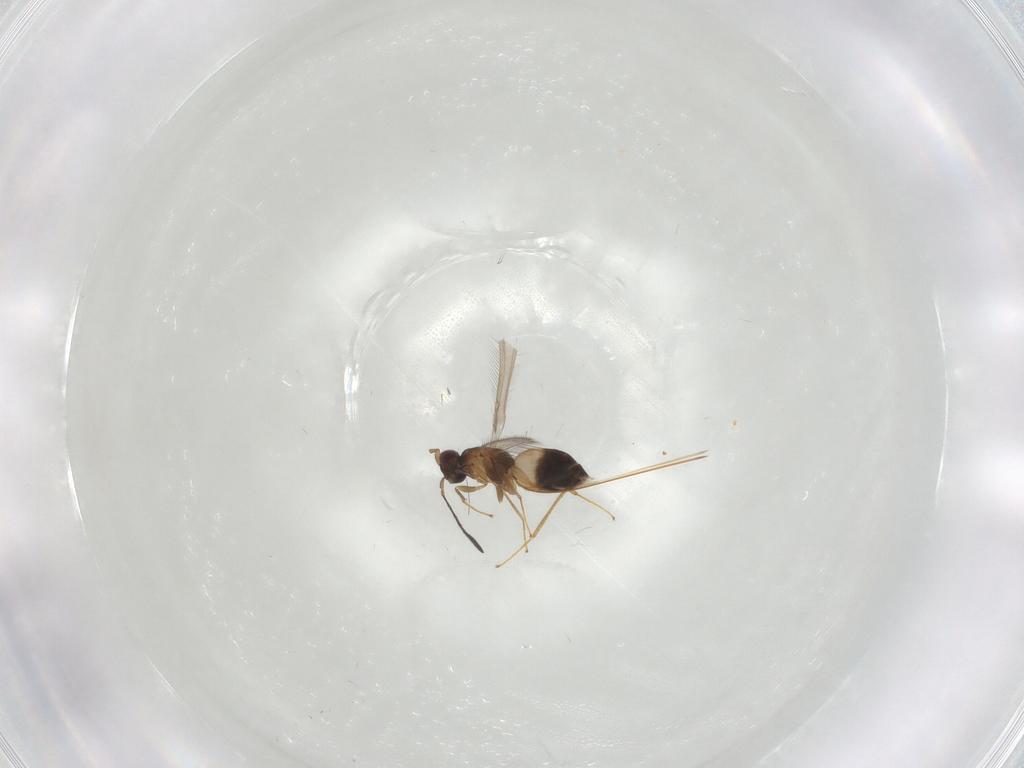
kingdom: Animalia
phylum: Arthropoda
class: Insecta
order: Hymenoptera
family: Mymaridae
